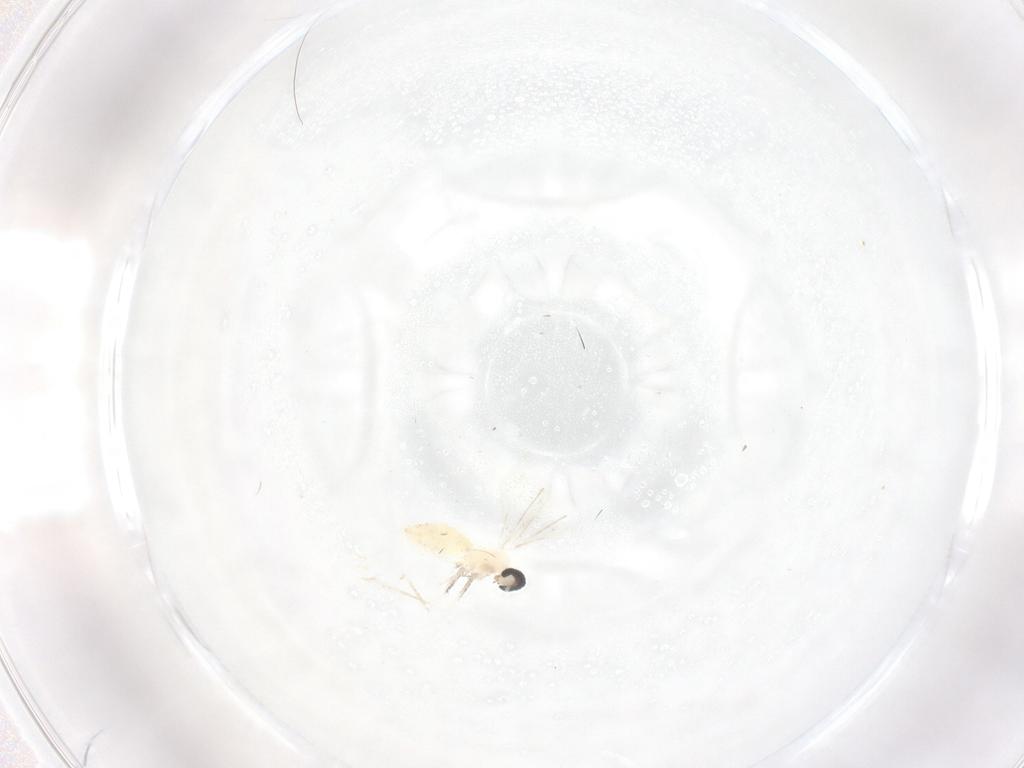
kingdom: Animalia
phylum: Arthropoda
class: Insecta
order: Diptera
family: Cecidomyiidae
